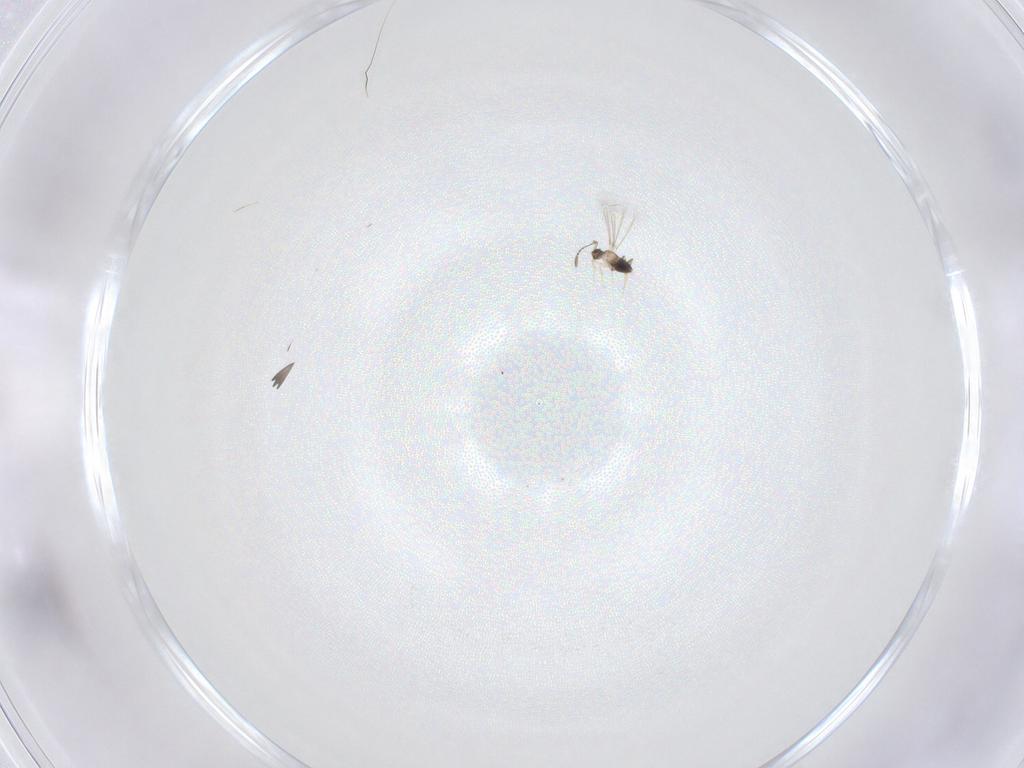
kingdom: Animalia
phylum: Arthropoda
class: Insecta
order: Hymenoptera
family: Mymaridae
